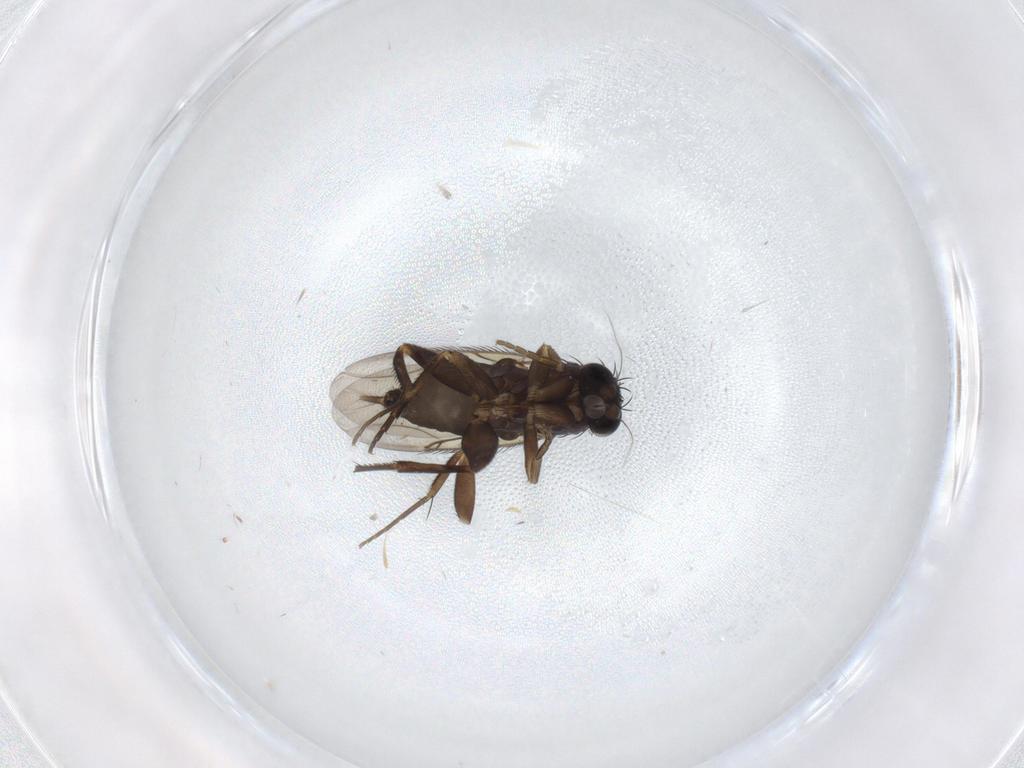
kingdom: Animalia
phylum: Arthropoda
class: Insecta
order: Diptera
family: Phoridae
